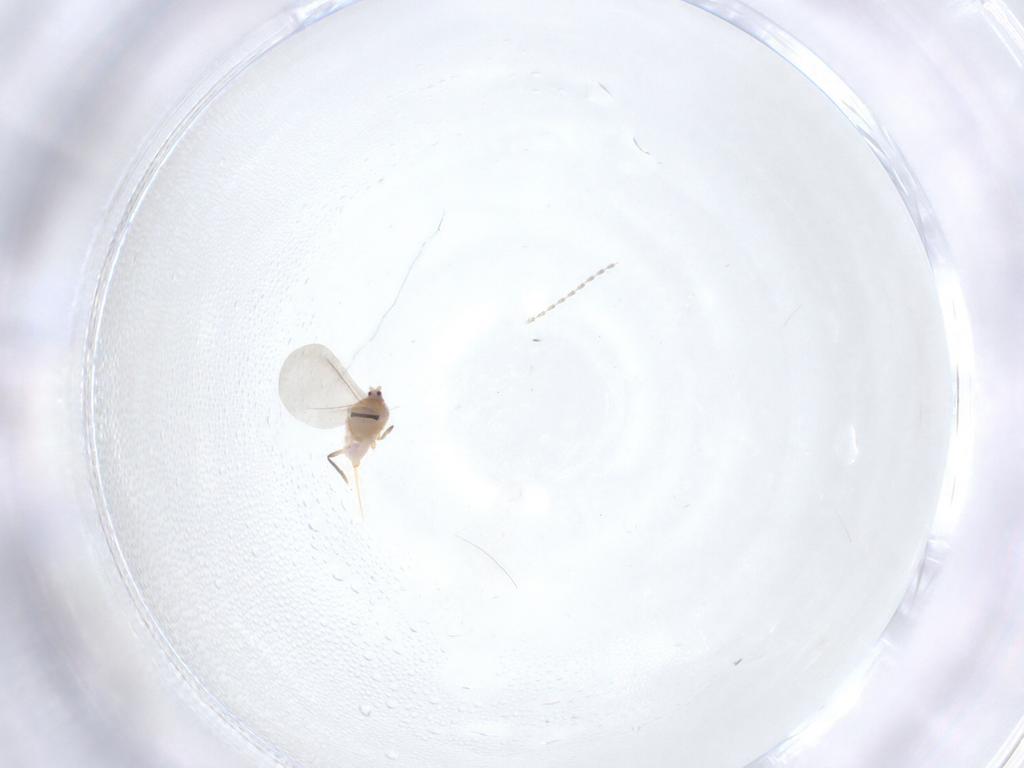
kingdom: Animalia
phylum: Arthropoda
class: Insecta
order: Diptera
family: Cecidomyiidae
